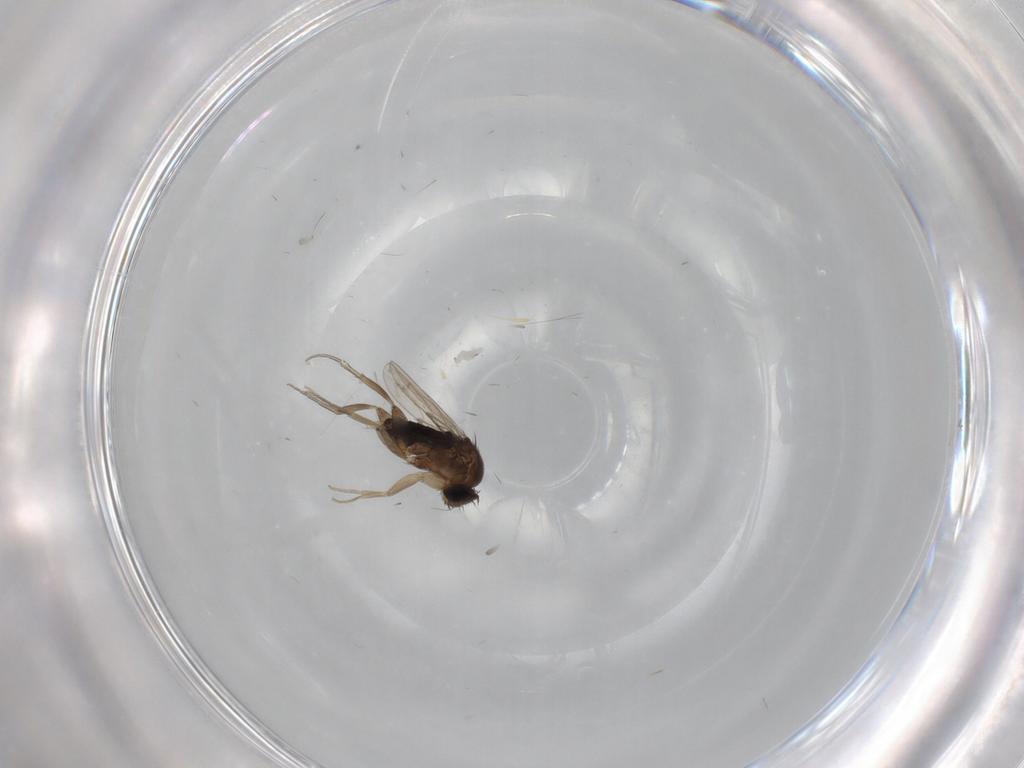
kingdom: Animalia
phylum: Arthropoda
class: Insecta
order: Diptera
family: Phoridae
